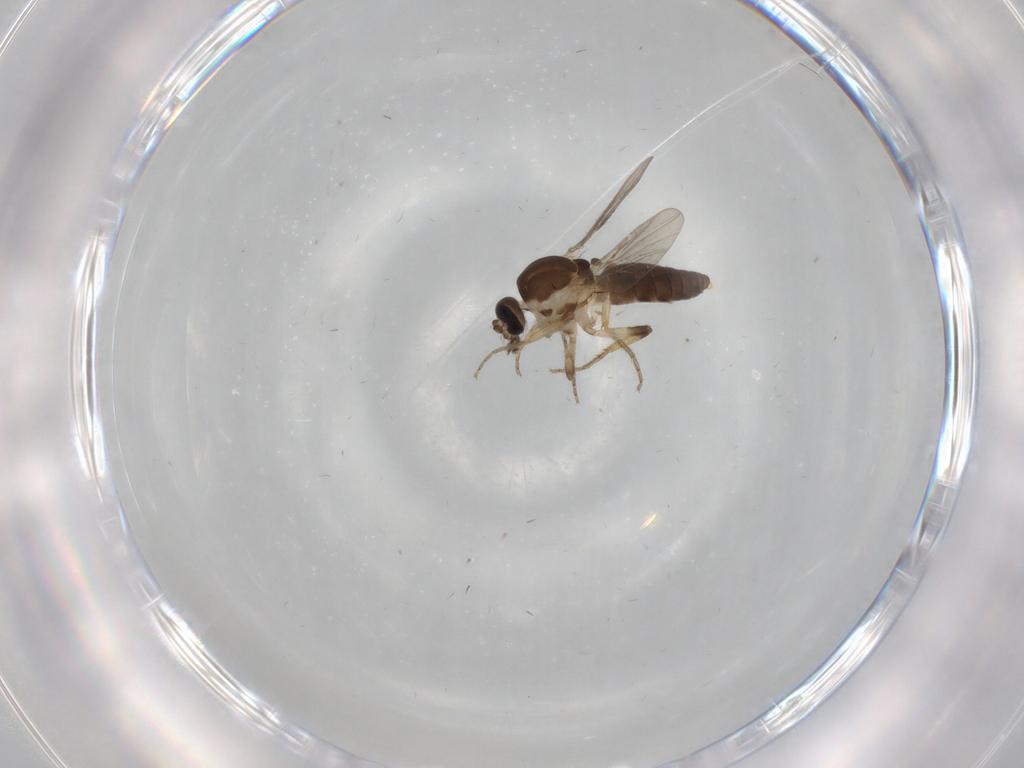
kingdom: Animalia
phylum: Arthropoda
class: Insecta
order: Diptera
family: Ceratopogonidae
